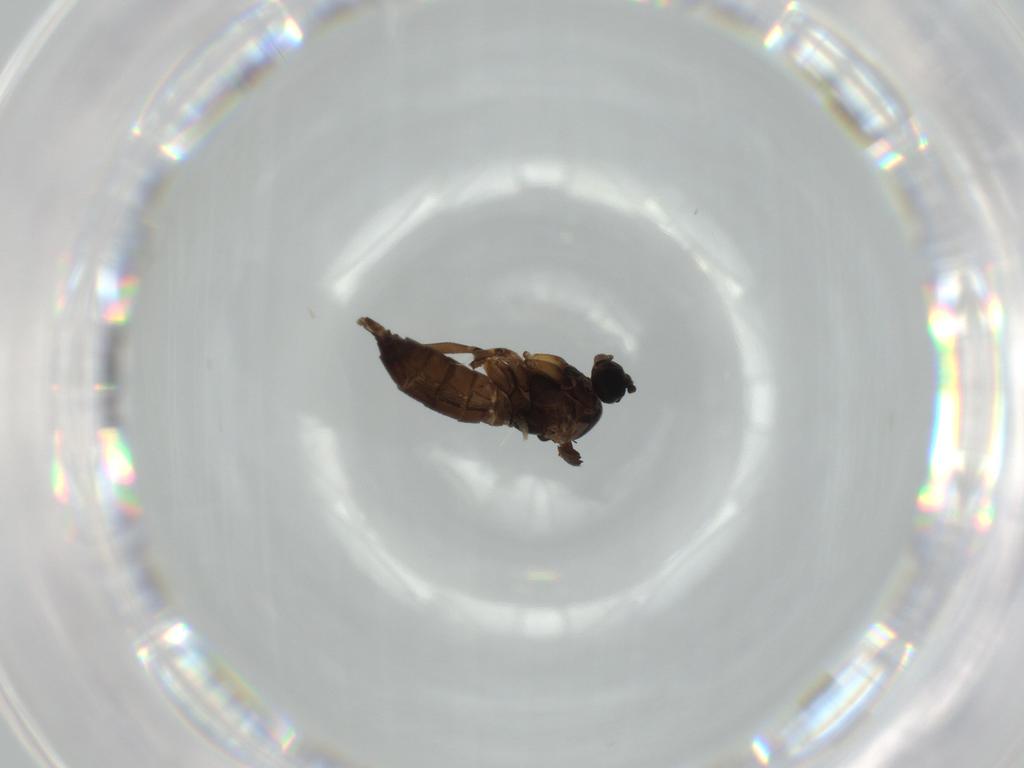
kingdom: Animalia
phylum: Arthropoda
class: Insecta
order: Diptera
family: Sciaridae
